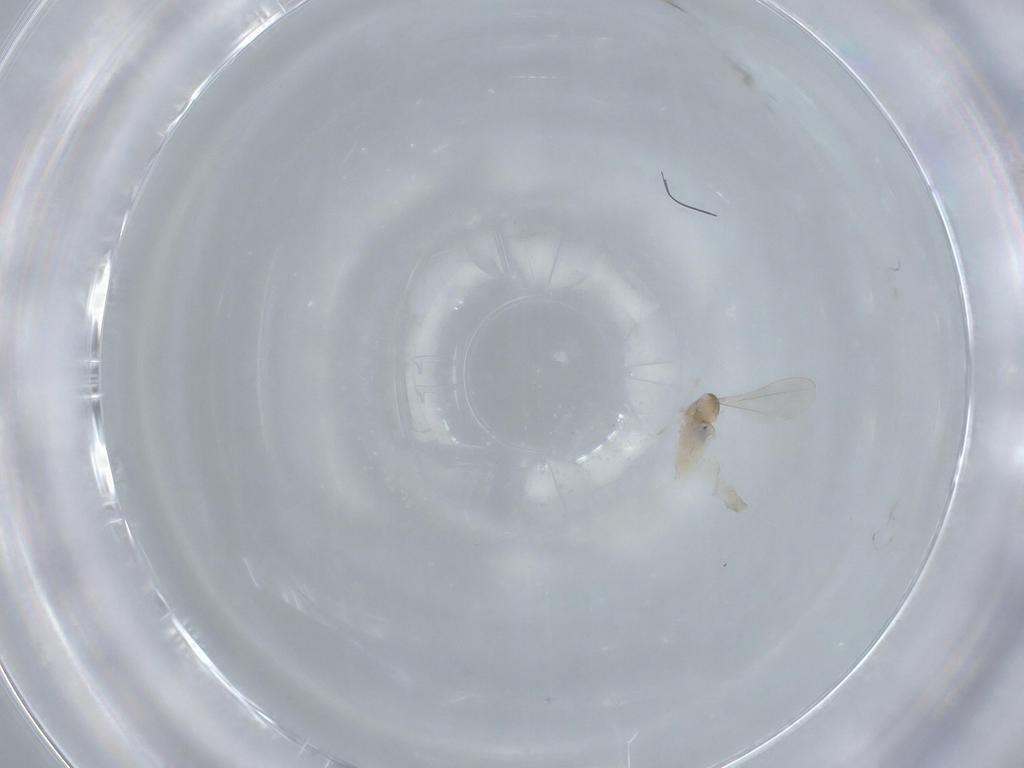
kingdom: Animalia
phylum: Arthropoda
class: Insecta
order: Diptera
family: Cecidomyiidae
